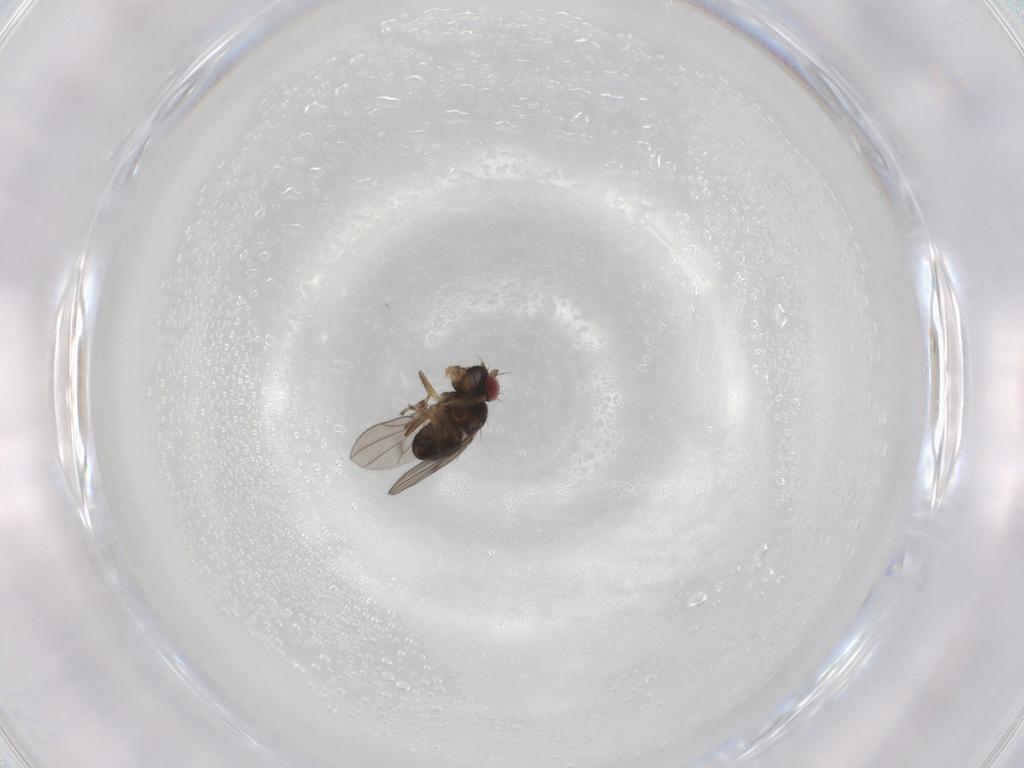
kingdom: Animalia
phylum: Arthropoda
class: Insecta
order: Diptera
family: Ephydridae
